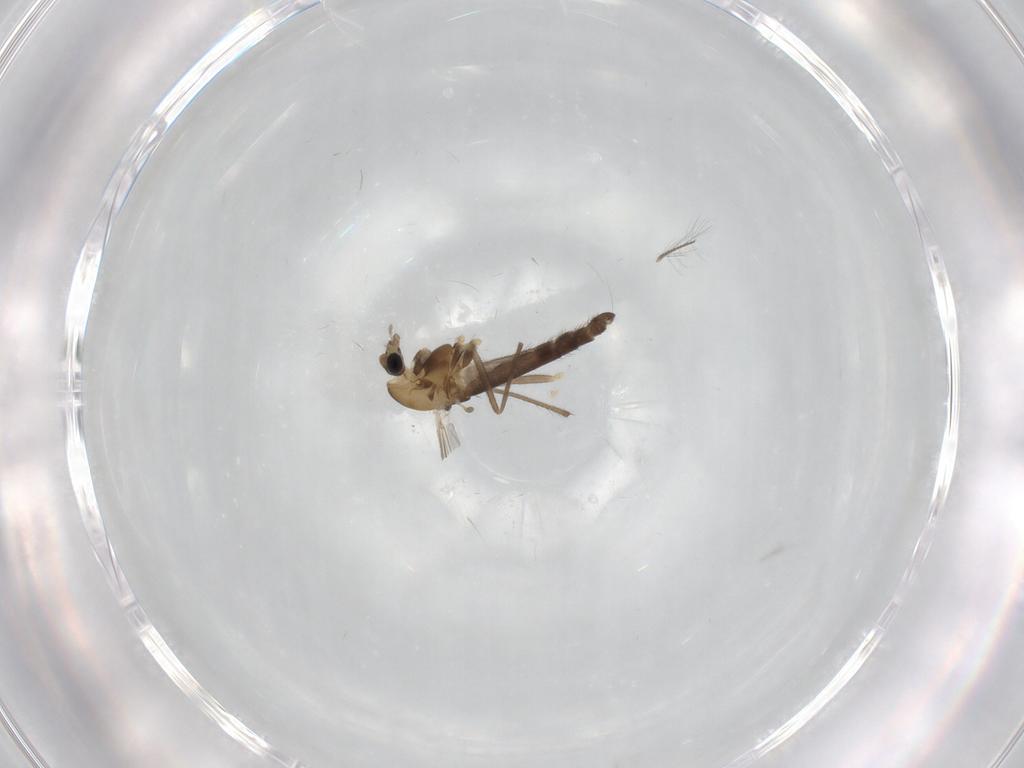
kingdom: Animalia
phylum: Arthropoda
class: Insecta
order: Diptera
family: Chironomidae
